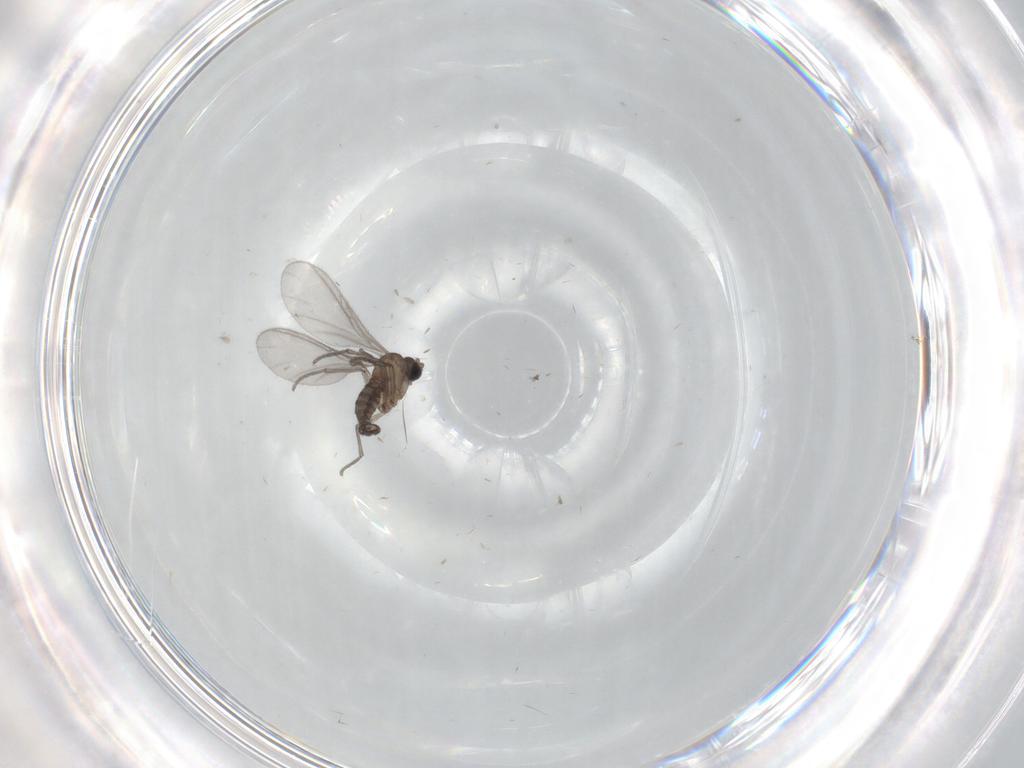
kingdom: Animalia
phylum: Arthropoda
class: Insecta
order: Diptera
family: Sciaridae
